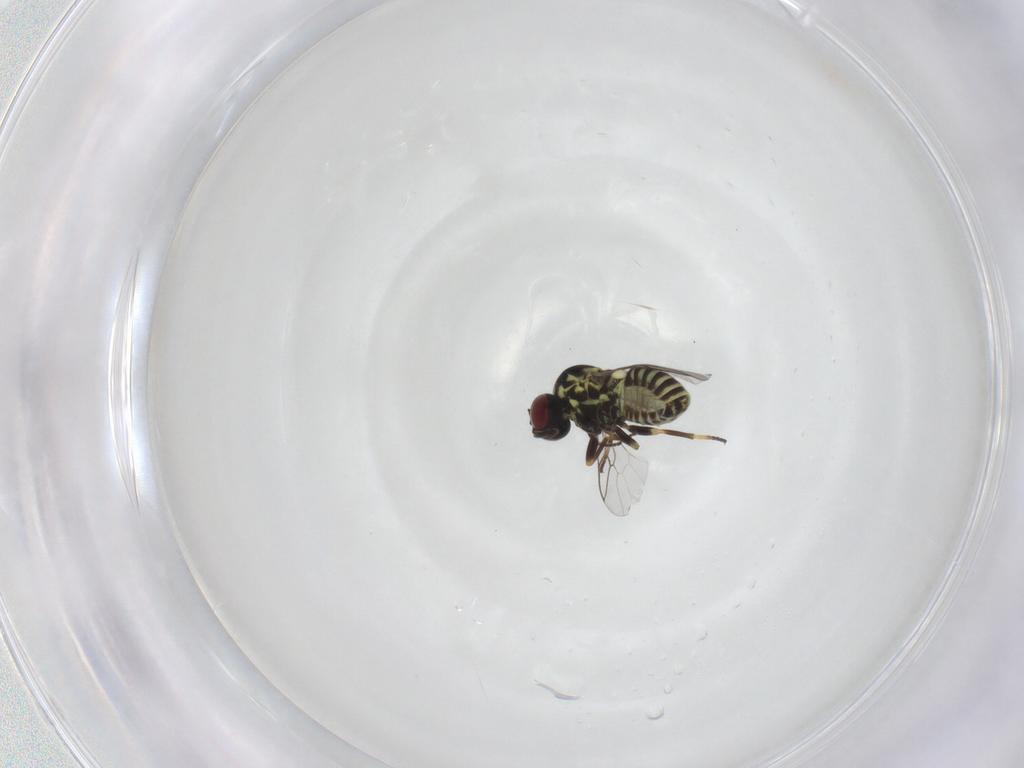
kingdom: Animalia
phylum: Arthropoda
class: Insecta
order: Diptera
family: Mythicomyiidae
